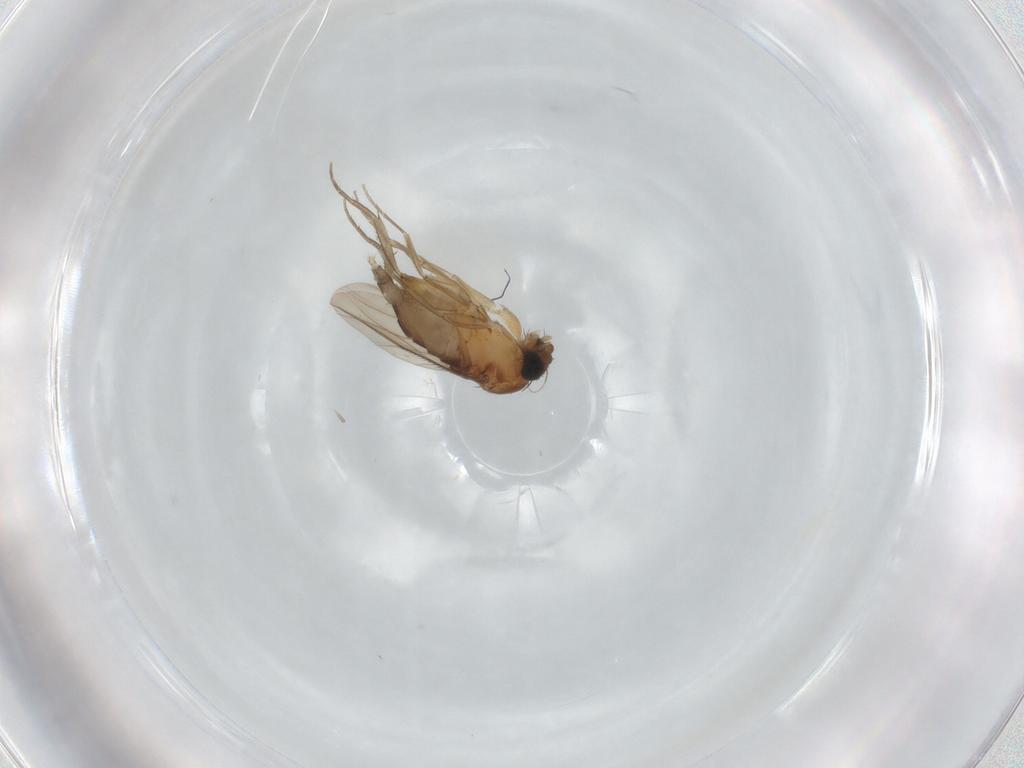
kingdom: Animalia
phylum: Arthropoda
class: Insecta
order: Diptera
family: Phoridae
